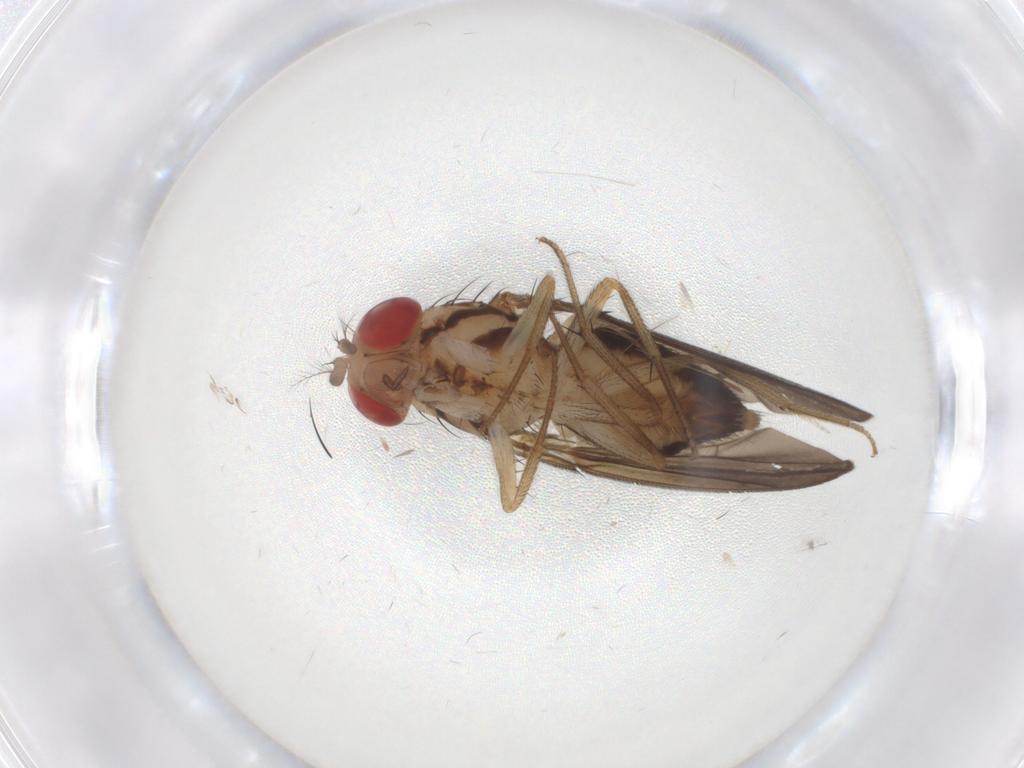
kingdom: Animalia
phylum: Arthropoda
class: Insecta
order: Diptera
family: Drosophilidae
